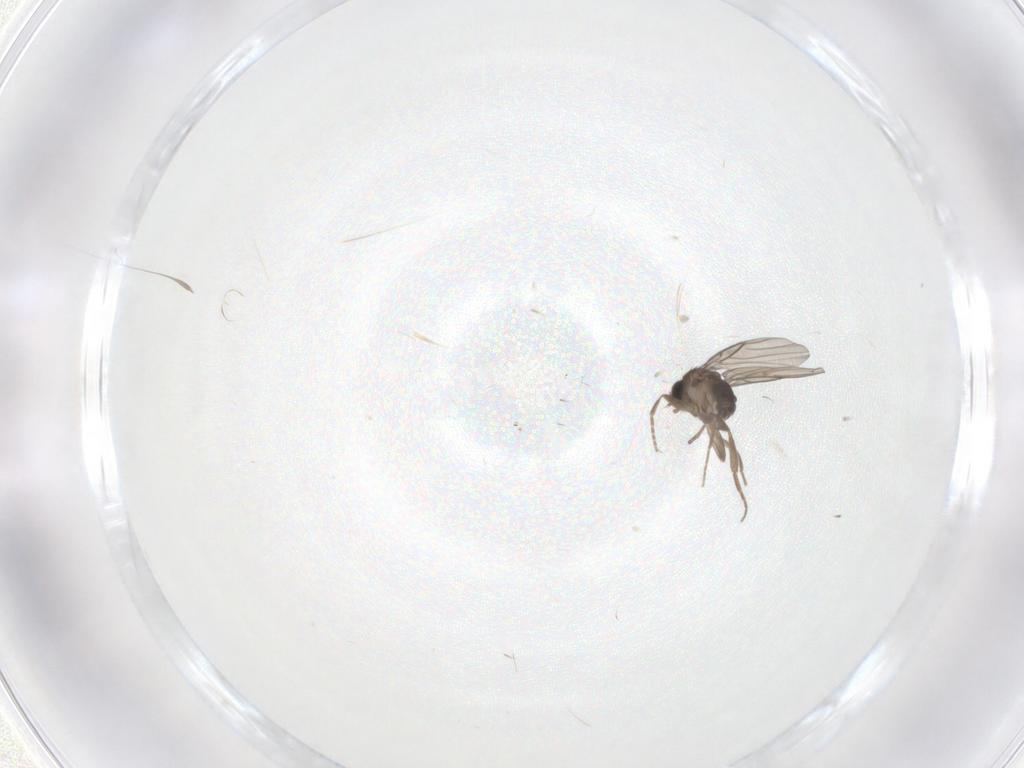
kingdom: Animalia
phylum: Arthropoda
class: Insecta
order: Diptera
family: Phoridae
